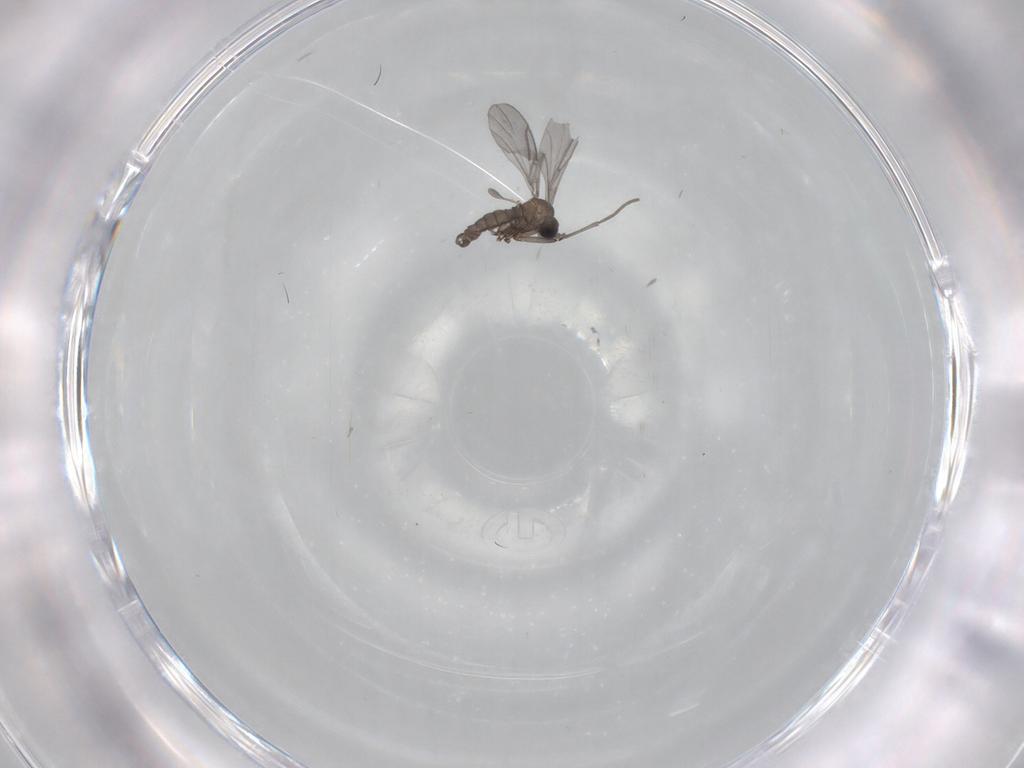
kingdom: Animalia
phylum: Arthropoda
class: Insecta
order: Diptera
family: Sciaridae
